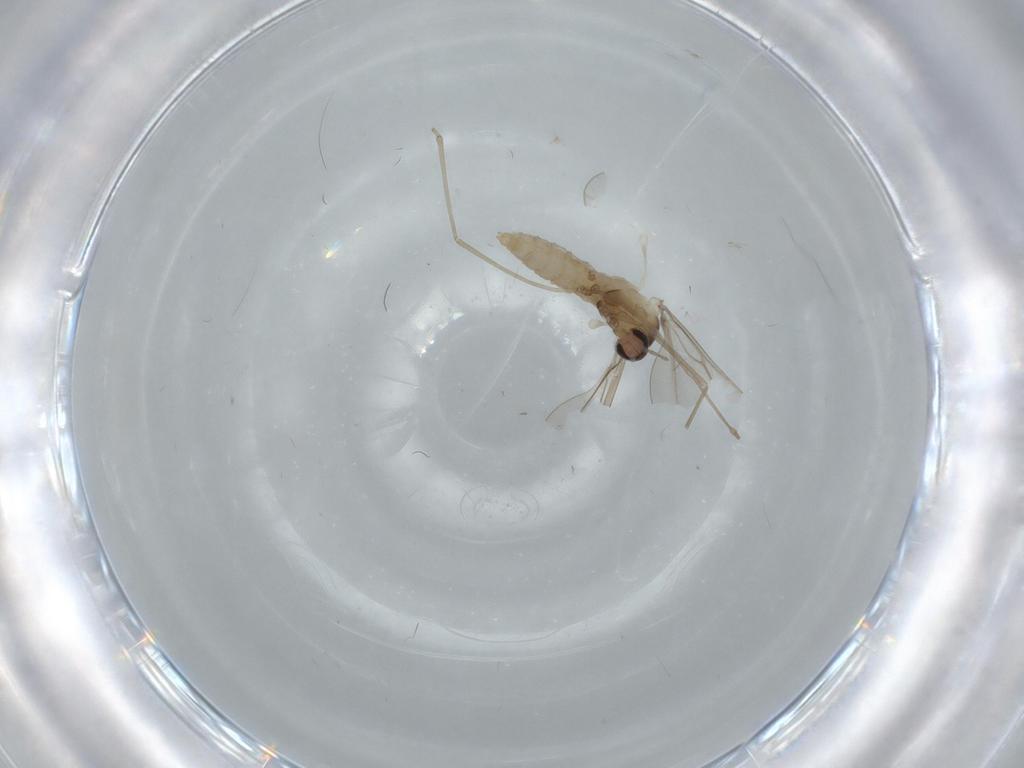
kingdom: Animalia
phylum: Arthropoda
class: Insecta
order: Diptera
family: Cecidomyiidae
